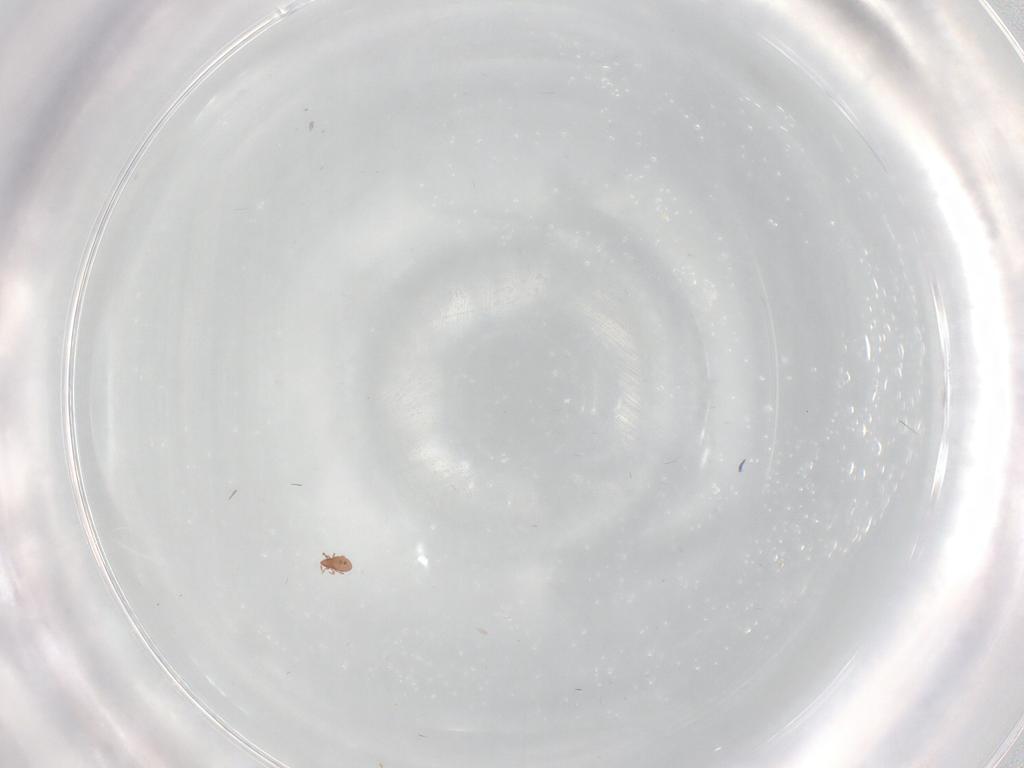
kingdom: Animalia
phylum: Arthropoda
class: Arachnida
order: Sarcoptiformes
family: Oppiidae
